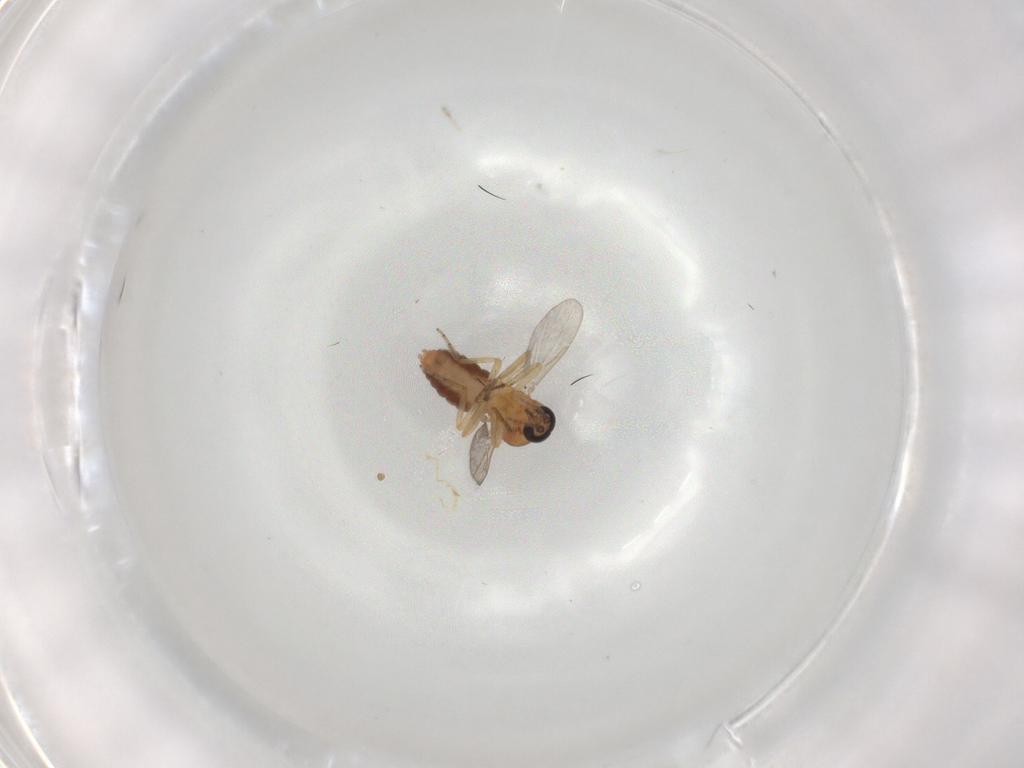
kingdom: Animalia
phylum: Arthropoda
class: Insecta
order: Diptera
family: Ceratopogonidae
